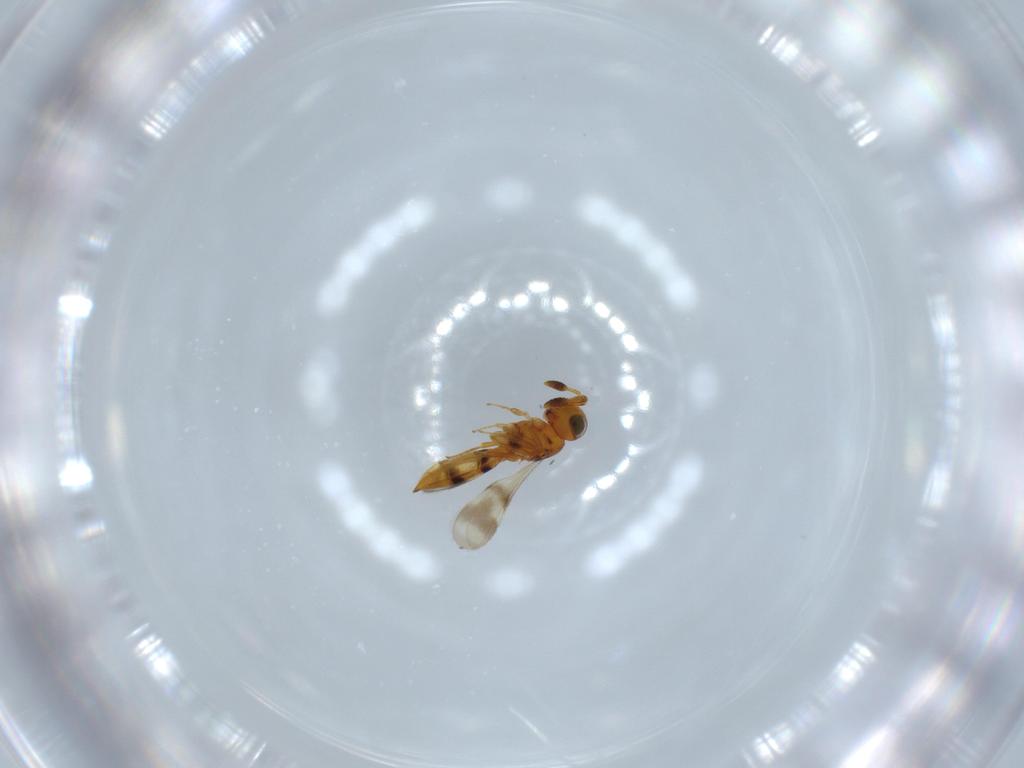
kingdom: Animalia
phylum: Arthropoda
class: Insecta
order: Hymenoptera
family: Scelionidae
